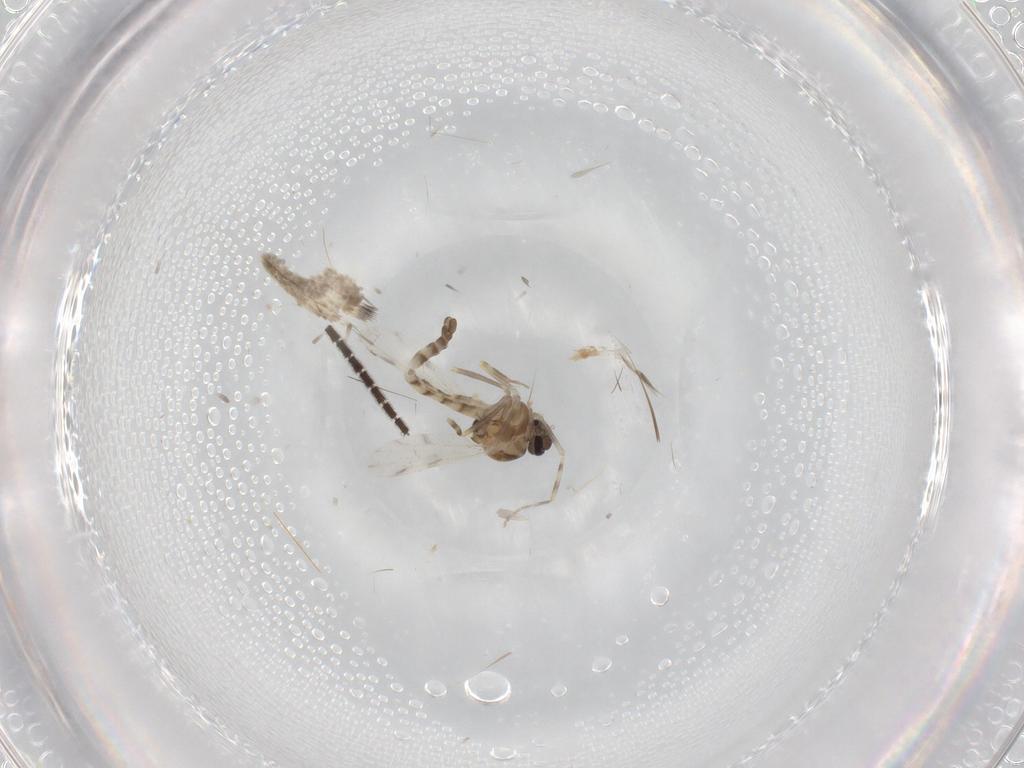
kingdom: Animalia
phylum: Arthropoda
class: Insecta
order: Diptera
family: Ceratopogonidae
